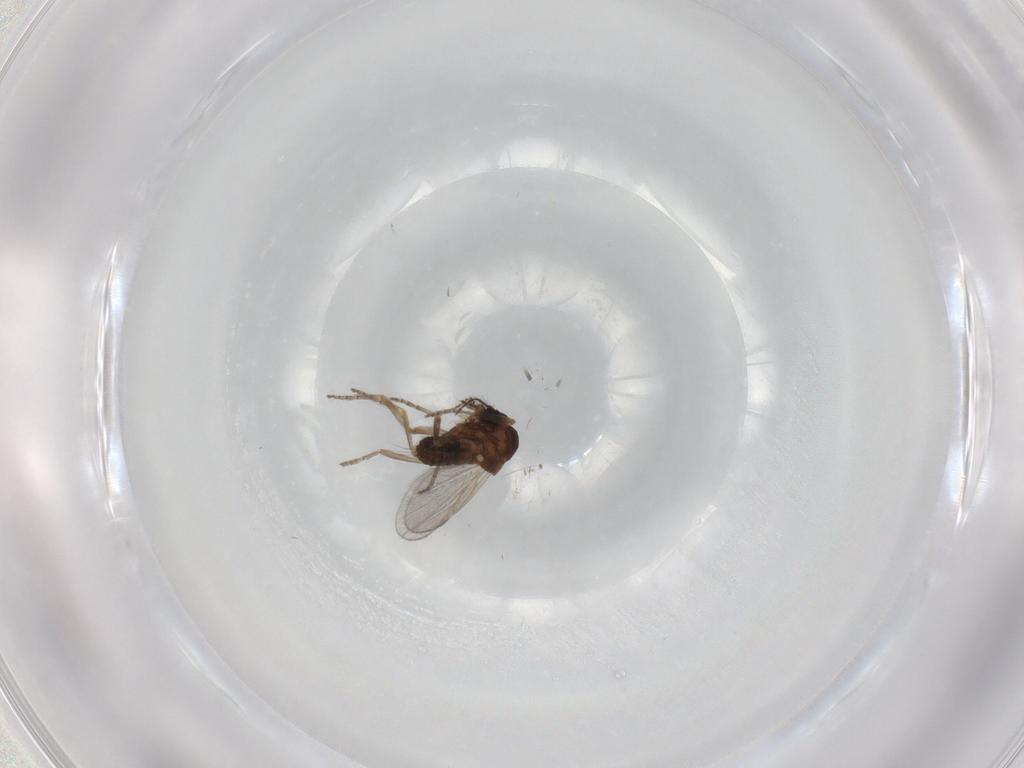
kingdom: Animalia
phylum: Arthropoda
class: Insecta
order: Diptera
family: Ceratopogonidae
